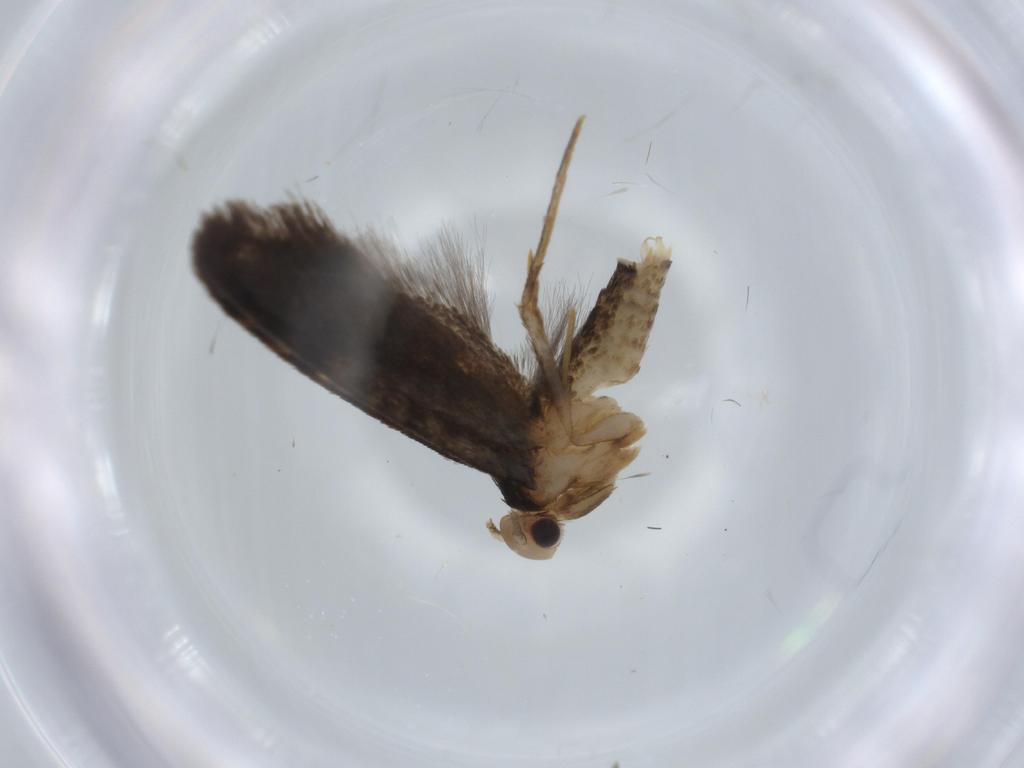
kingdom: Animalia
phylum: Arthropoda
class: Insecta
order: Lepidoptera
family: Tineidae
